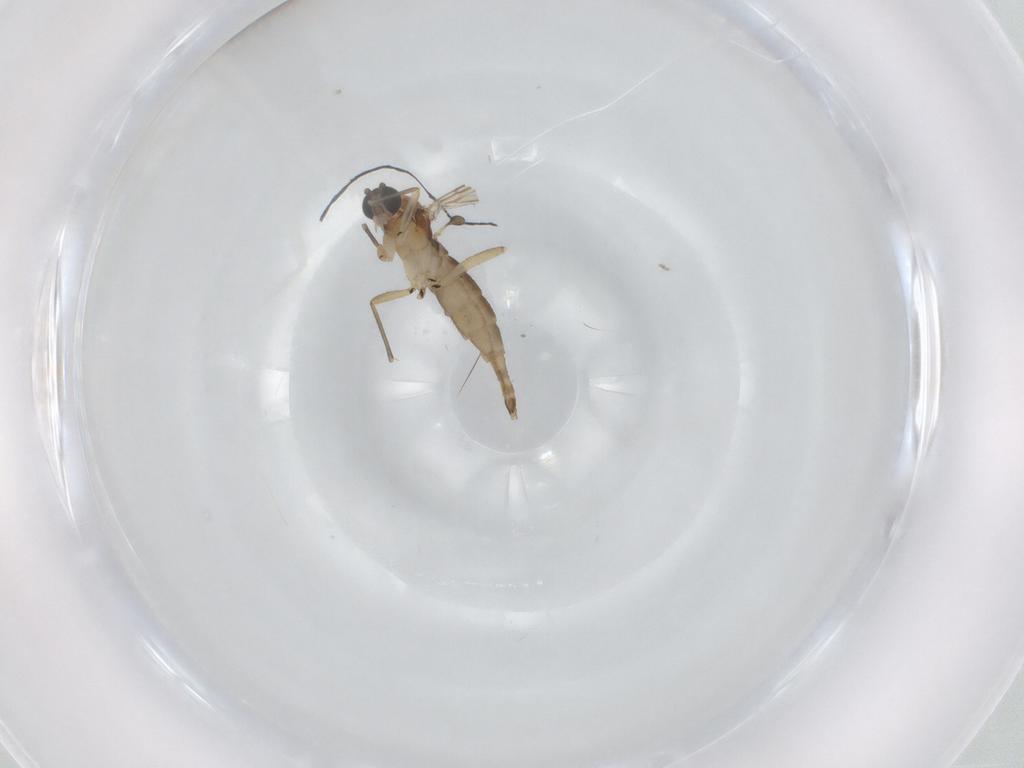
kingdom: Animalia
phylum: Arthropoda
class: Insecta
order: Diptera
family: Sciaridae
